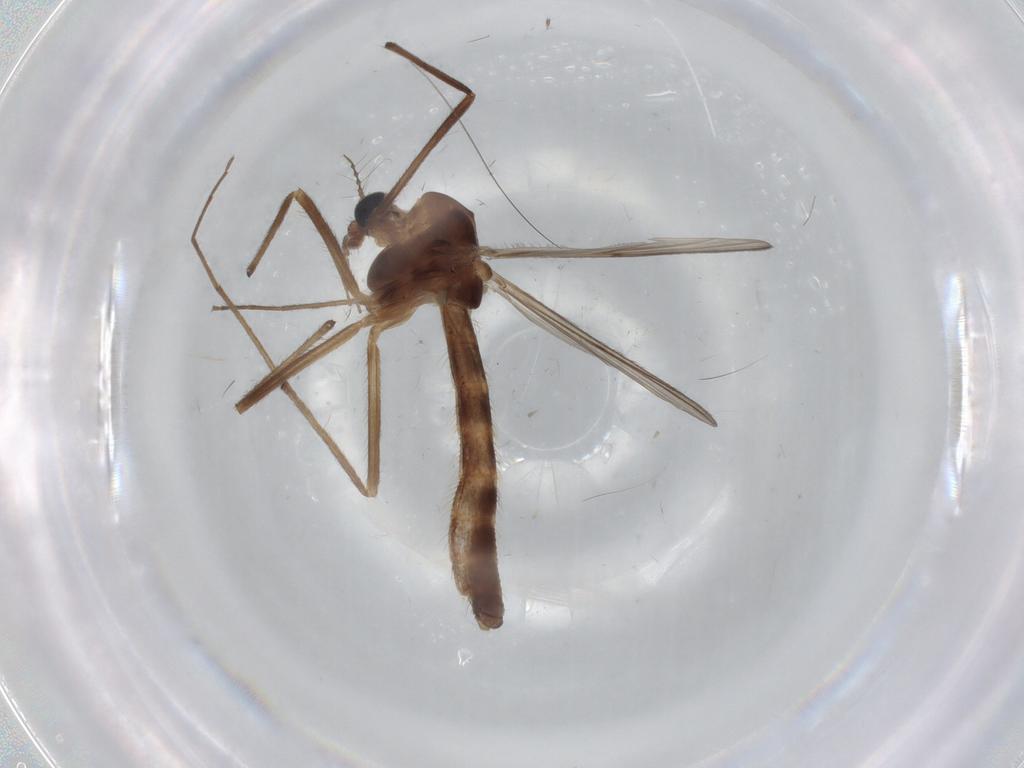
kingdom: Animalia
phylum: Arthropoda
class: Insecta
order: Diptera
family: Chironomidae
